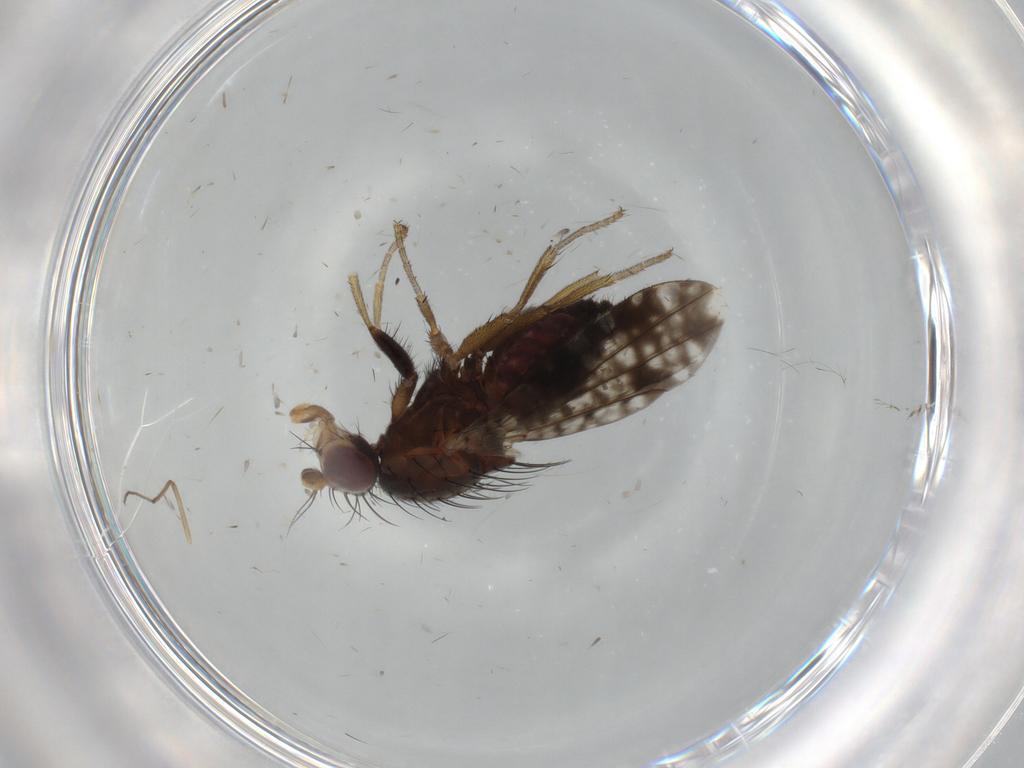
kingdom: Animalia
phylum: Arthropoda
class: Insecta
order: Diptera
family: Tephritidae
